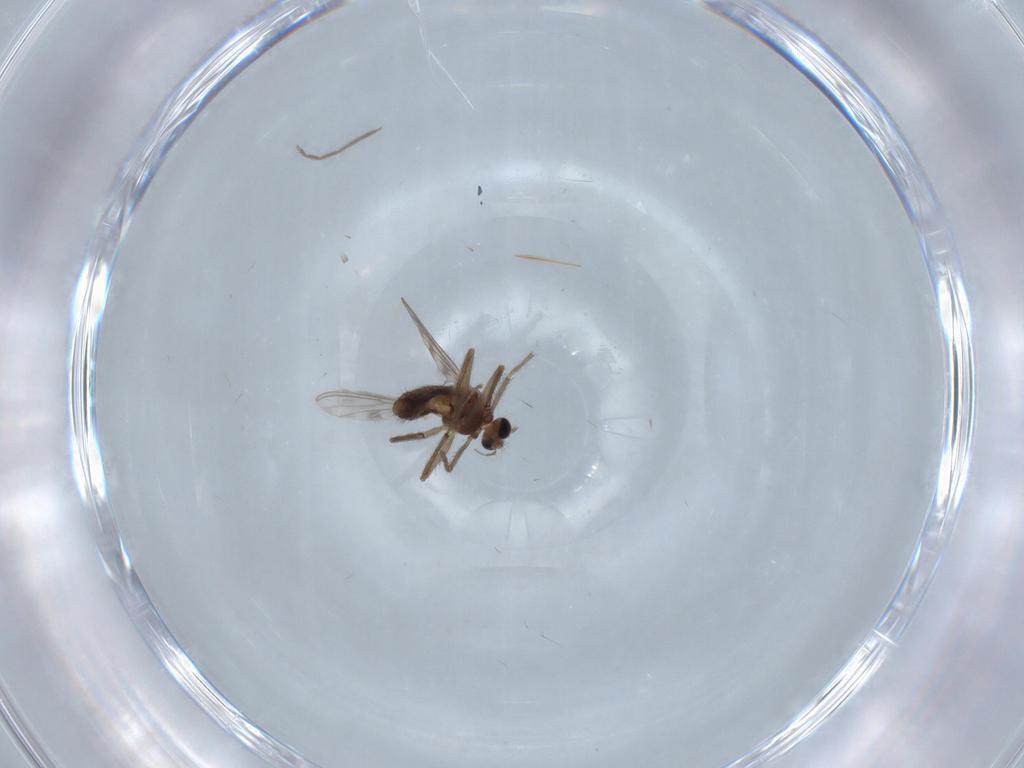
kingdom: Animalia
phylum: Arthropoda
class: Insecta
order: Diptera
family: Chironomidae
